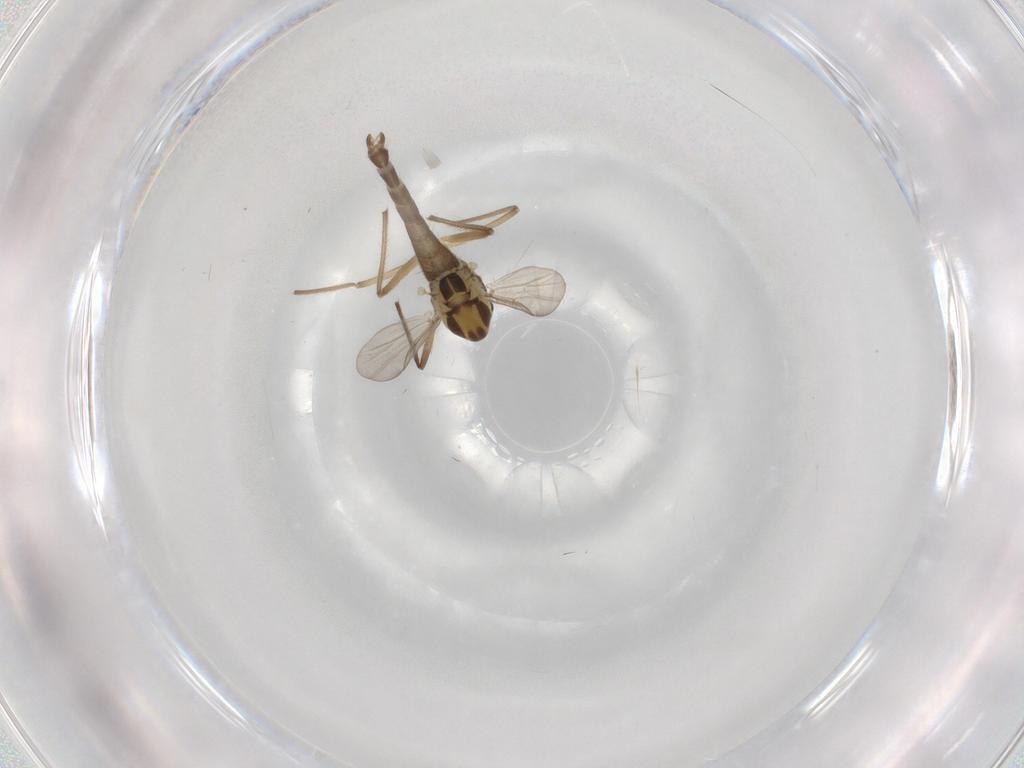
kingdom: Animalia
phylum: Arthropoda
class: Insecta
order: Diptera
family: Chironomidae
